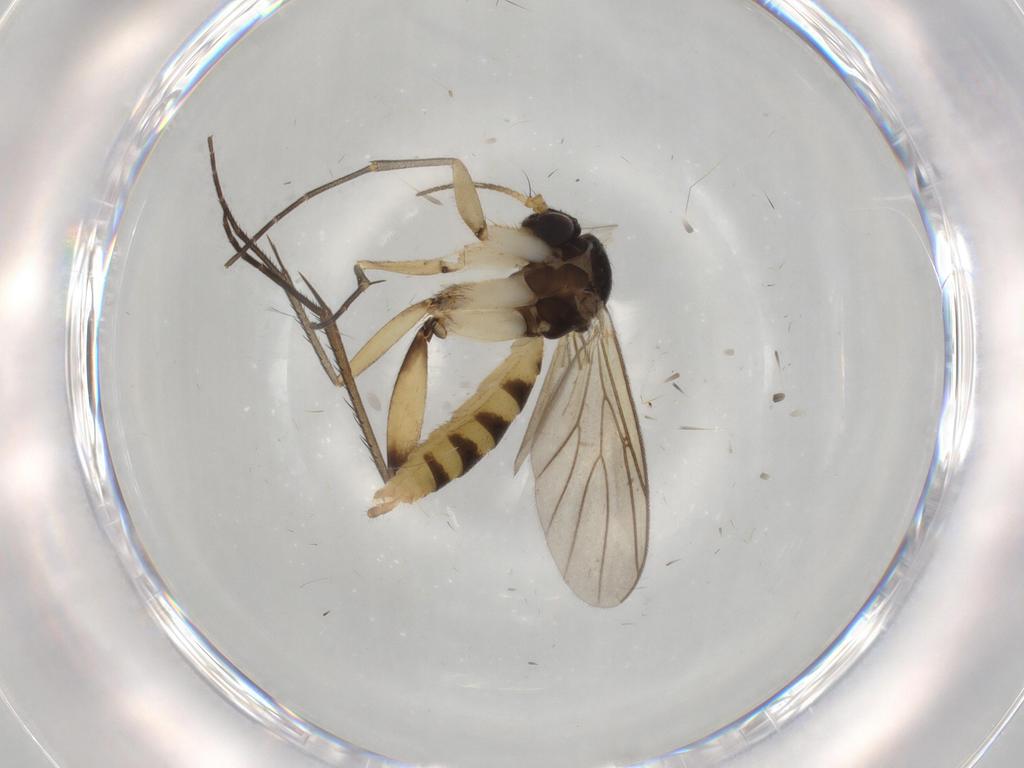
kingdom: Animalia
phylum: Arthropoda
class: Insecta
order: Diptera
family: Mycetophilidae
